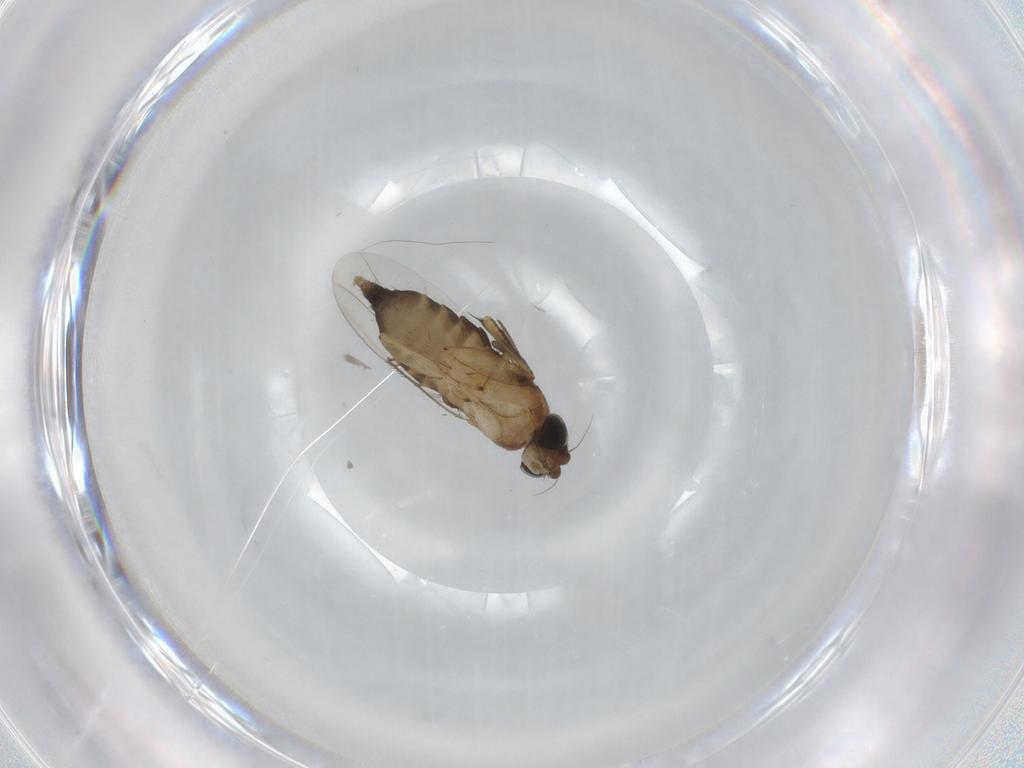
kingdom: Animalia
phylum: Arthropoda
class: Insecta
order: Diptera
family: Phoridae
